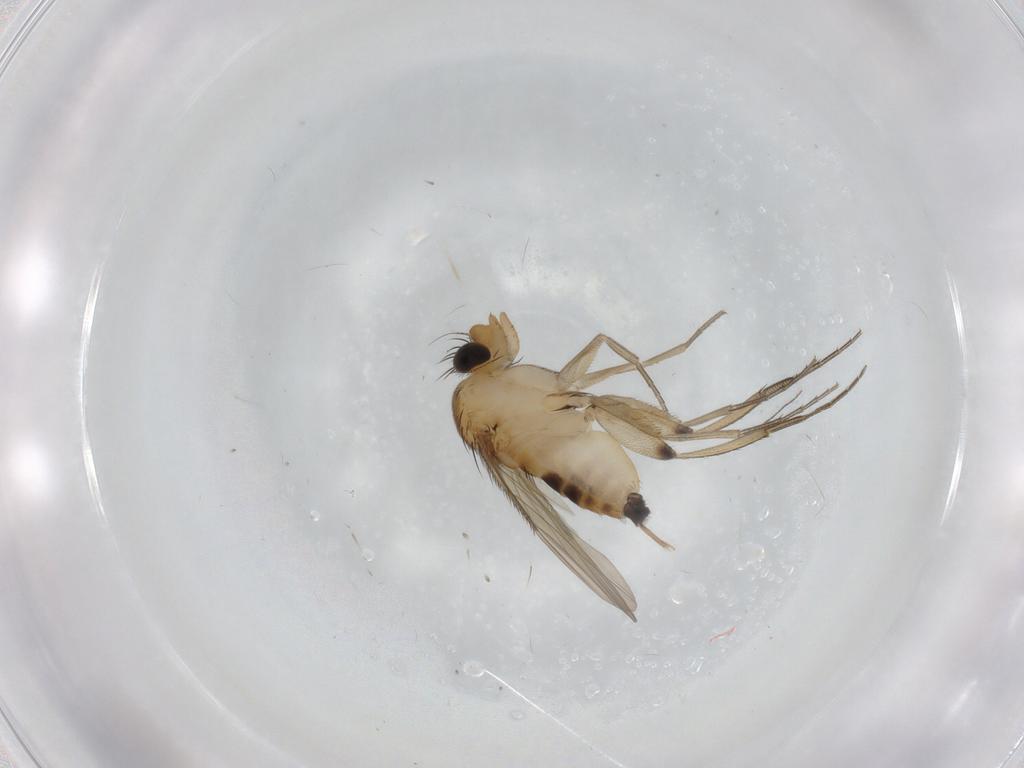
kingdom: Animalia
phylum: Arthropoda
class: Insecta
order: Diptera
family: Phoridae
